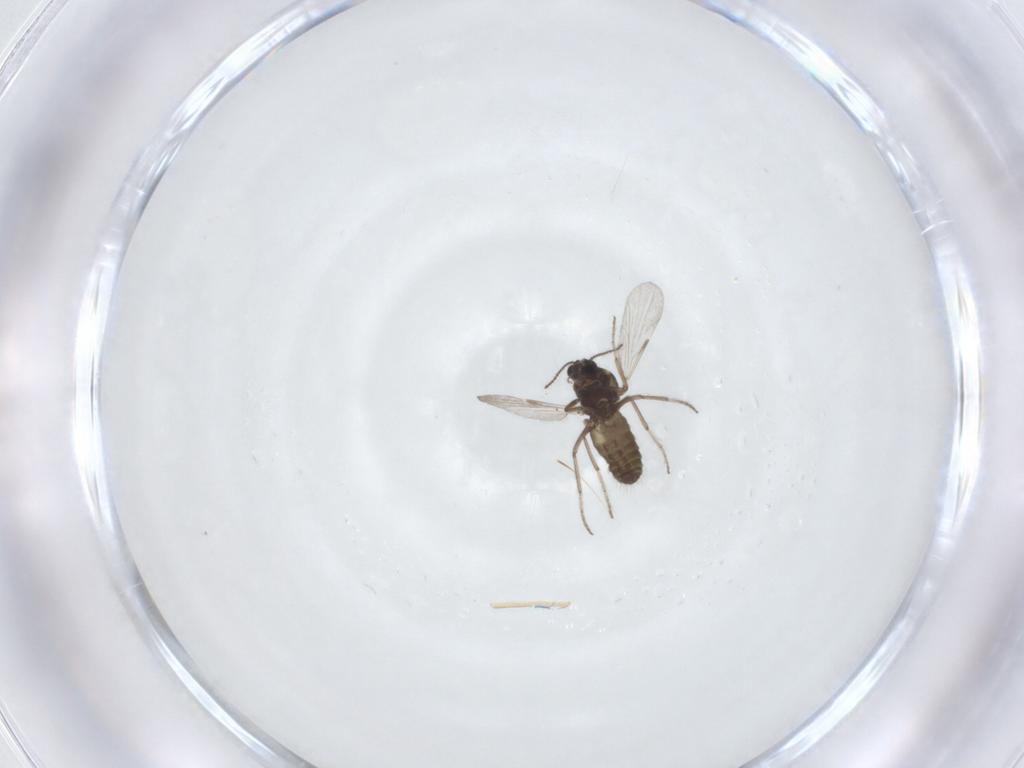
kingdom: Animalia
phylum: Arthropoda
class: Insecta
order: Diptera
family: Ceratopogonidae
